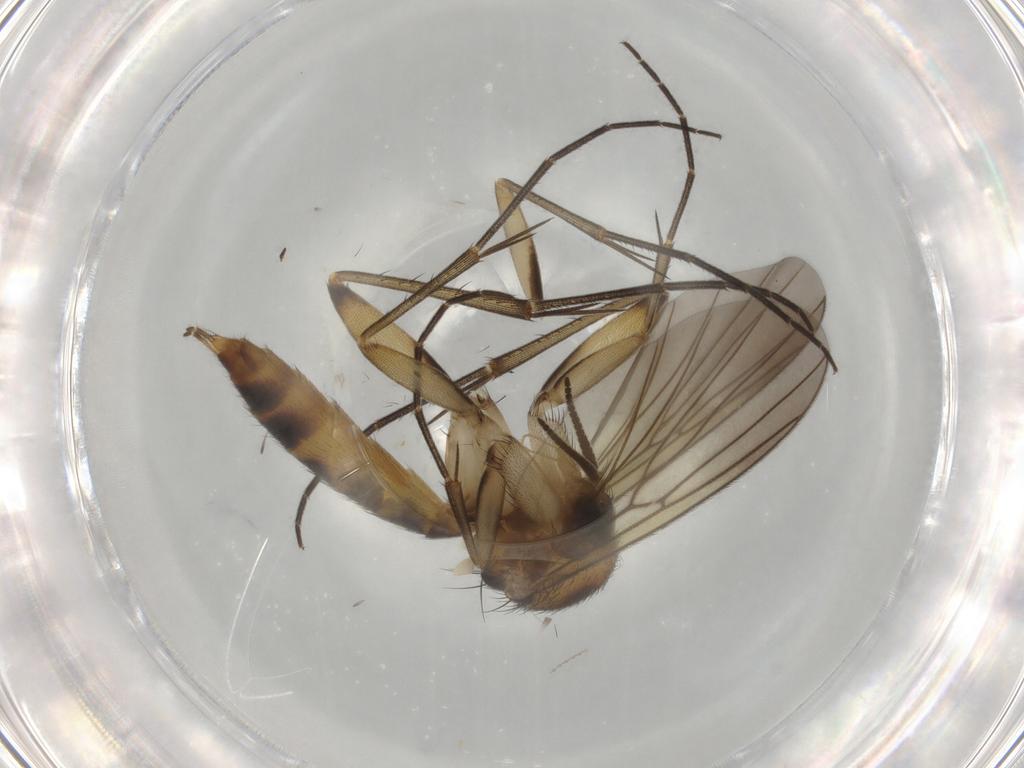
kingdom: Animalia
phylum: Arthropoda
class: Insecta
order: Diptera
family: Mycetophilidae
